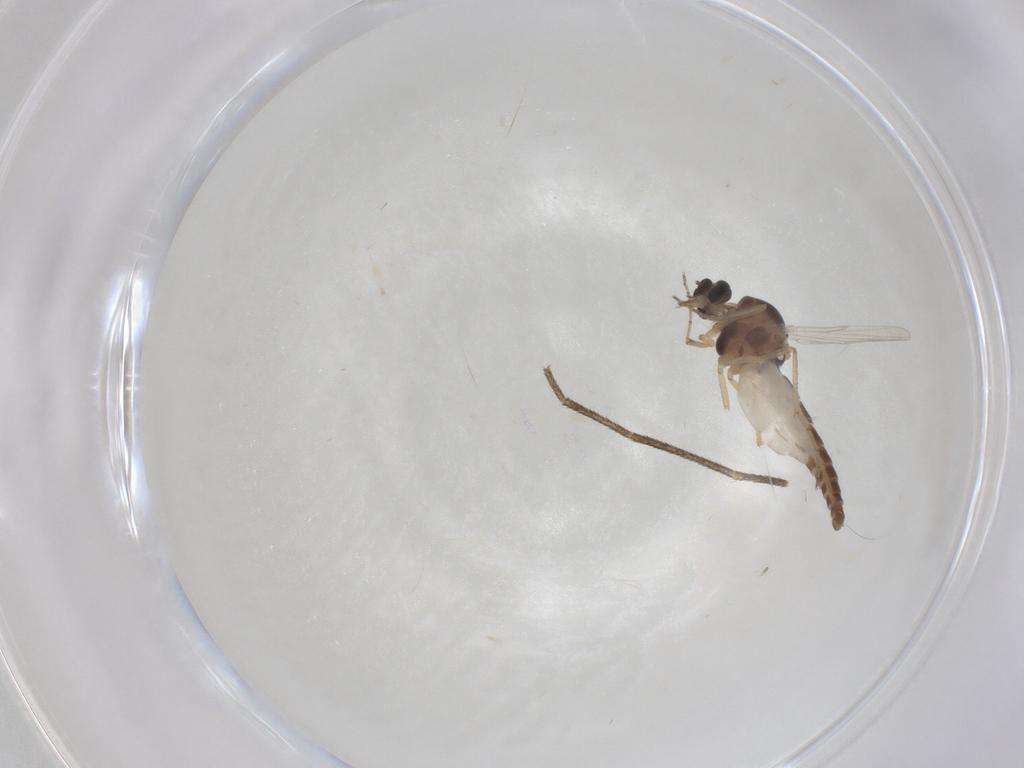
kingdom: Animalia
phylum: Arthropoda
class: Insecta
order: Diptera
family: Ceratopogonidae
